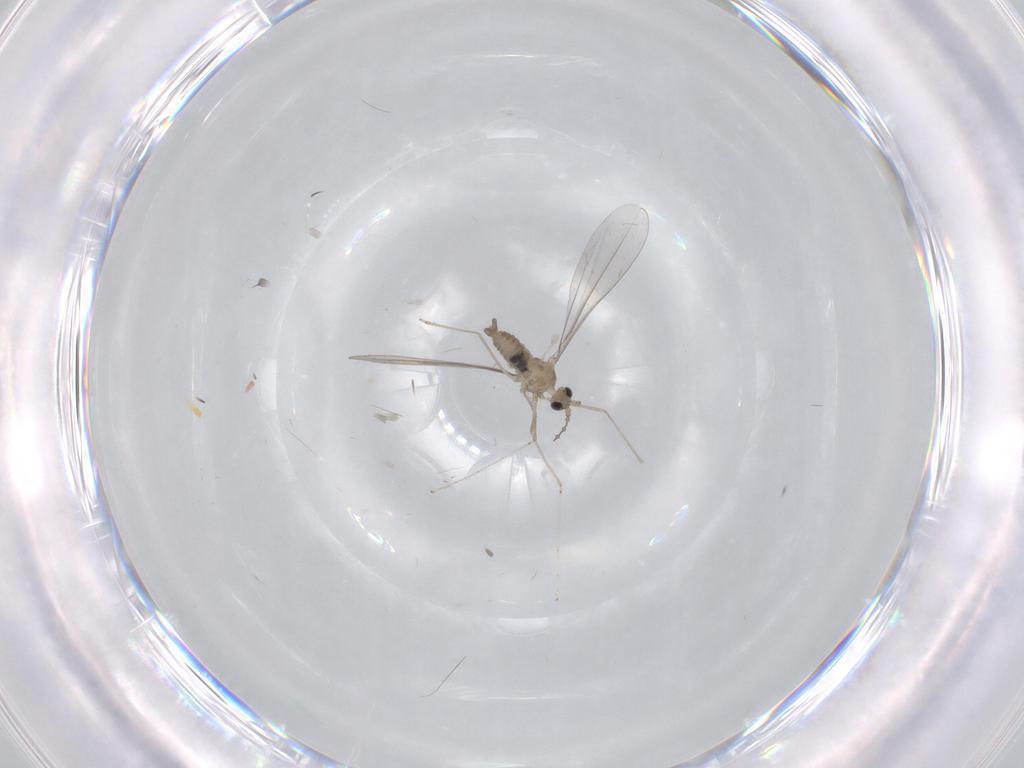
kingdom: Animalia
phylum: Arthropoda
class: Insecta
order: Diptera
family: Cecidomyiidae
